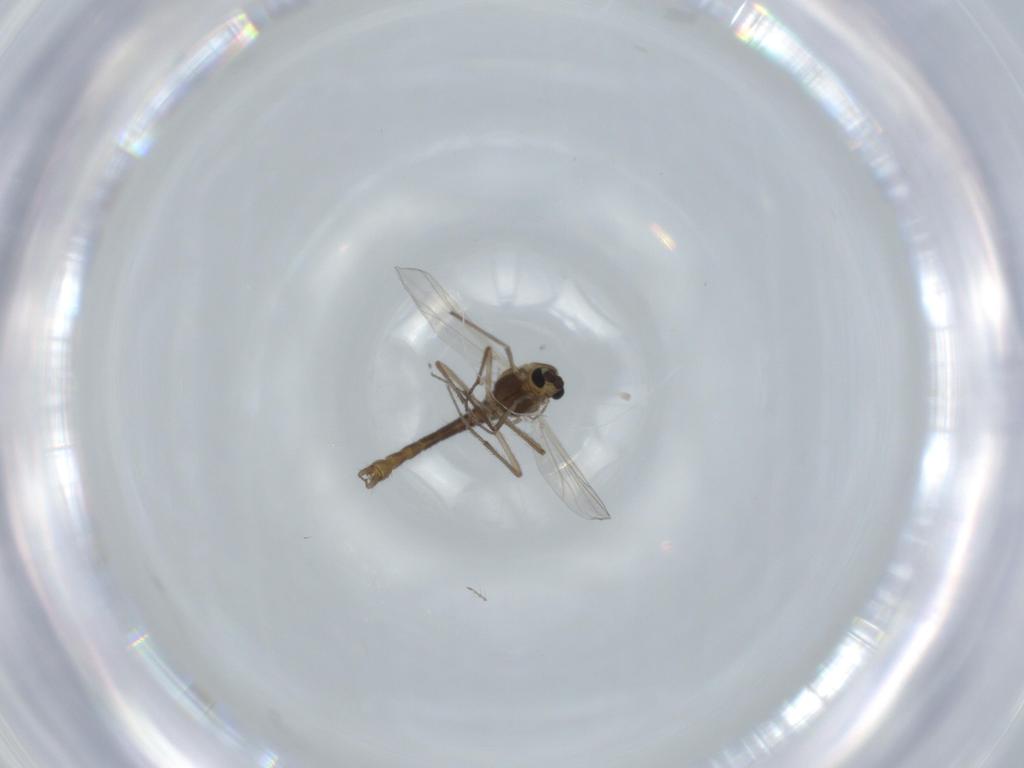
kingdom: Animalia
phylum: Arthropoda
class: Insecta
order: Diptera
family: Chironomidae
